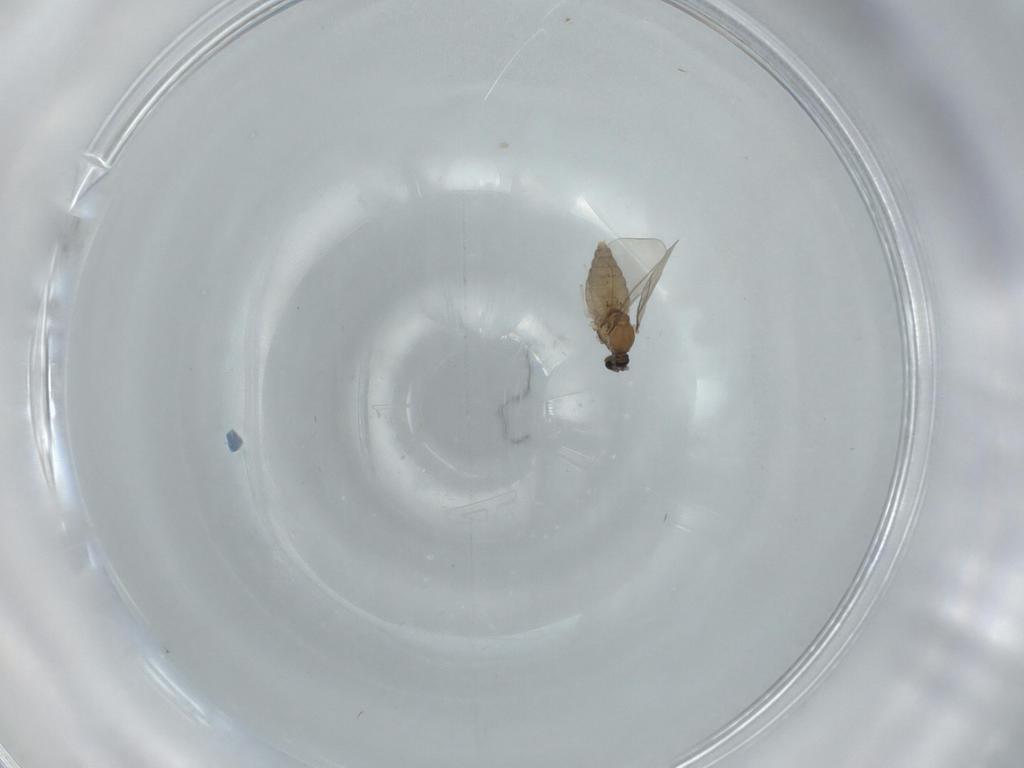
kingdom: Animalia
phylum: Arthropoda
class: Insecta
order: Diptera
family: Cecidomyiidae
